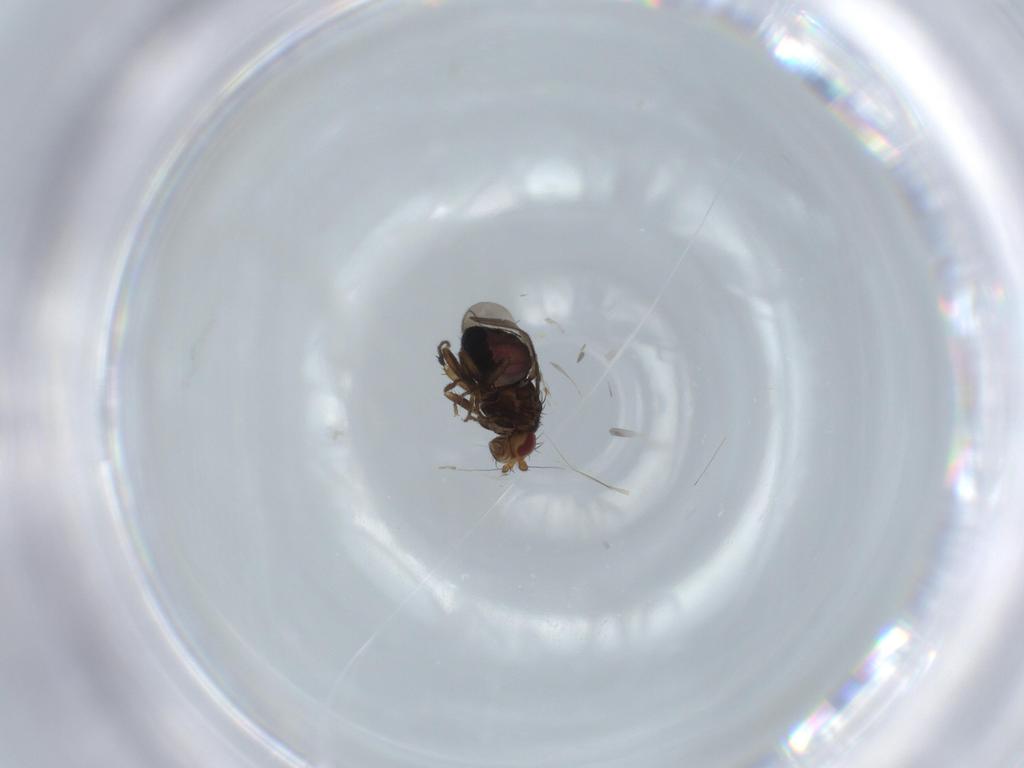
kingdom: Animalia
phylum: Arthropoda
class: Insecta
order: Diptera
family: Sphaeroceridae
